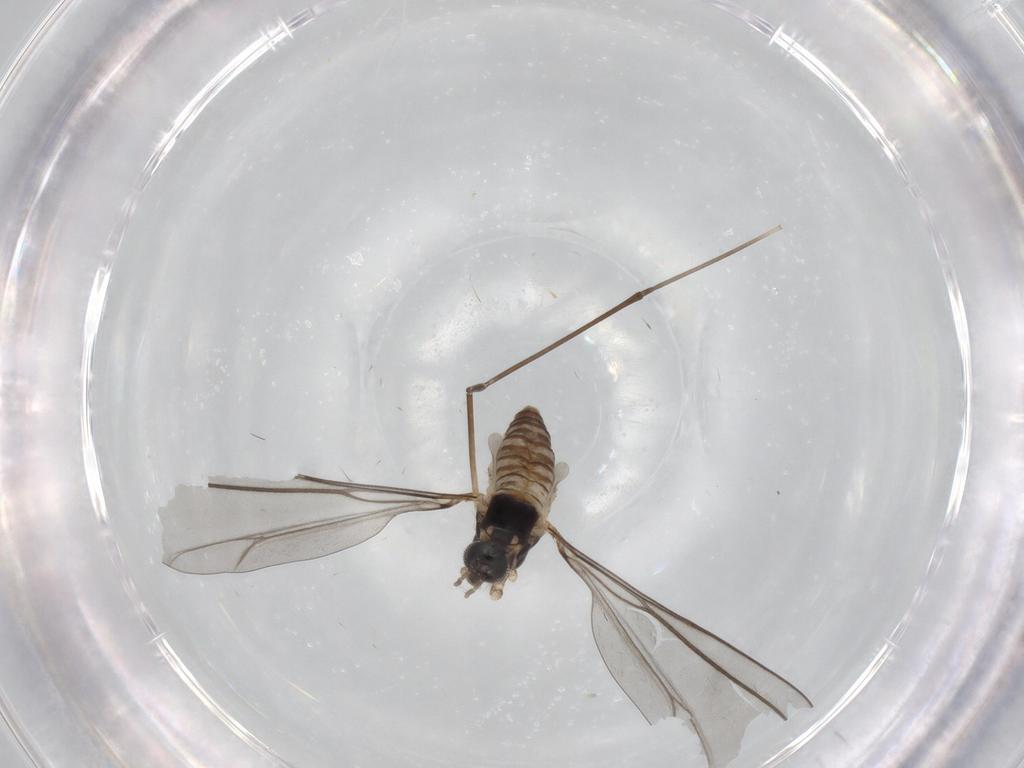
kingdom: Animalia
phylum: Arthropoda
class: Insecta
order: Diptera
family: Cecidomyiidae
